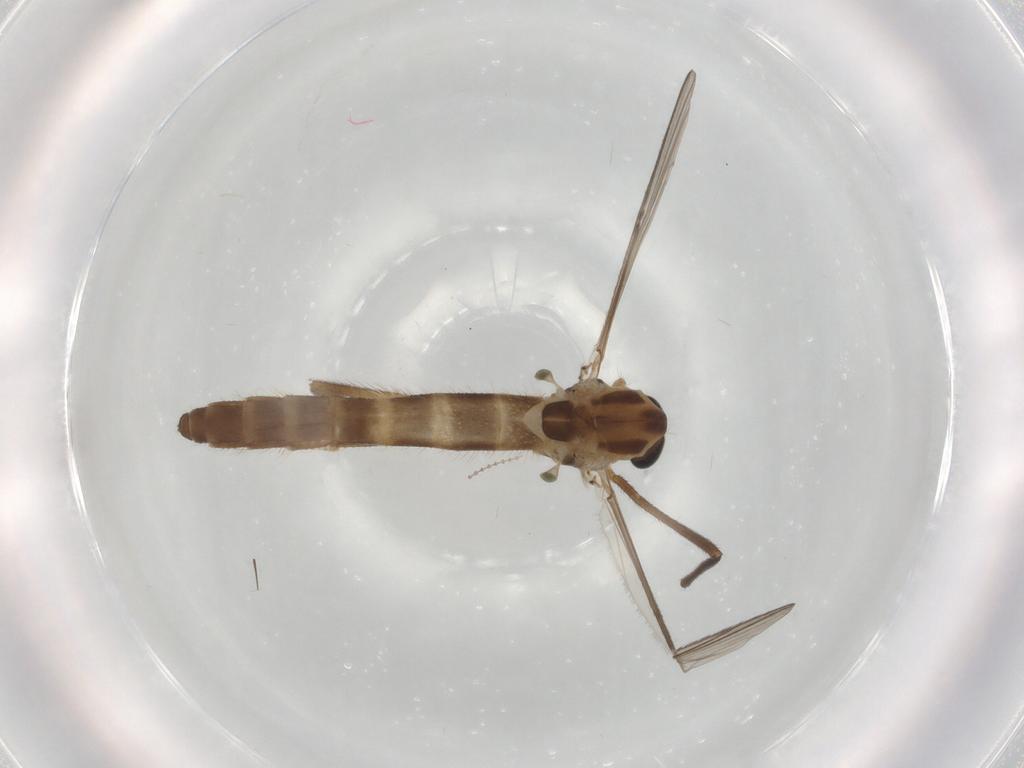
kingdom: Animalia
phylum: Arthropoda
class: Insecta
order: Diptera
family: Chironomidae
